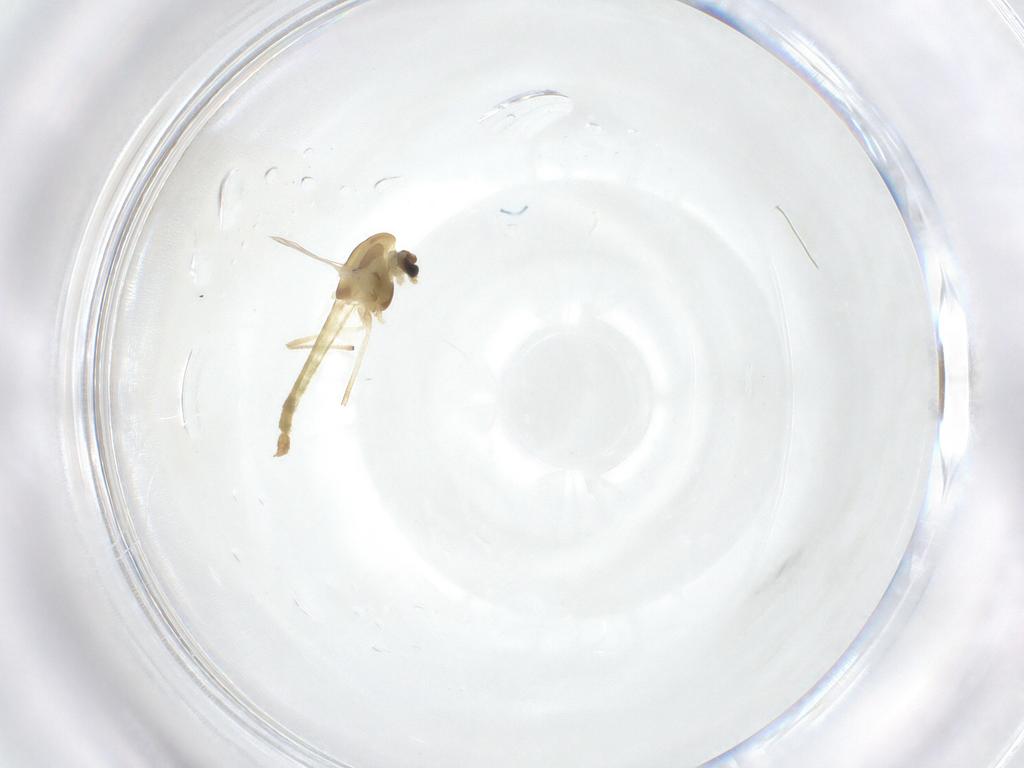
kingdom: Animalia
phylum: Arthropoda
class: Insecta
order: Diptera
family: Chironomidae
